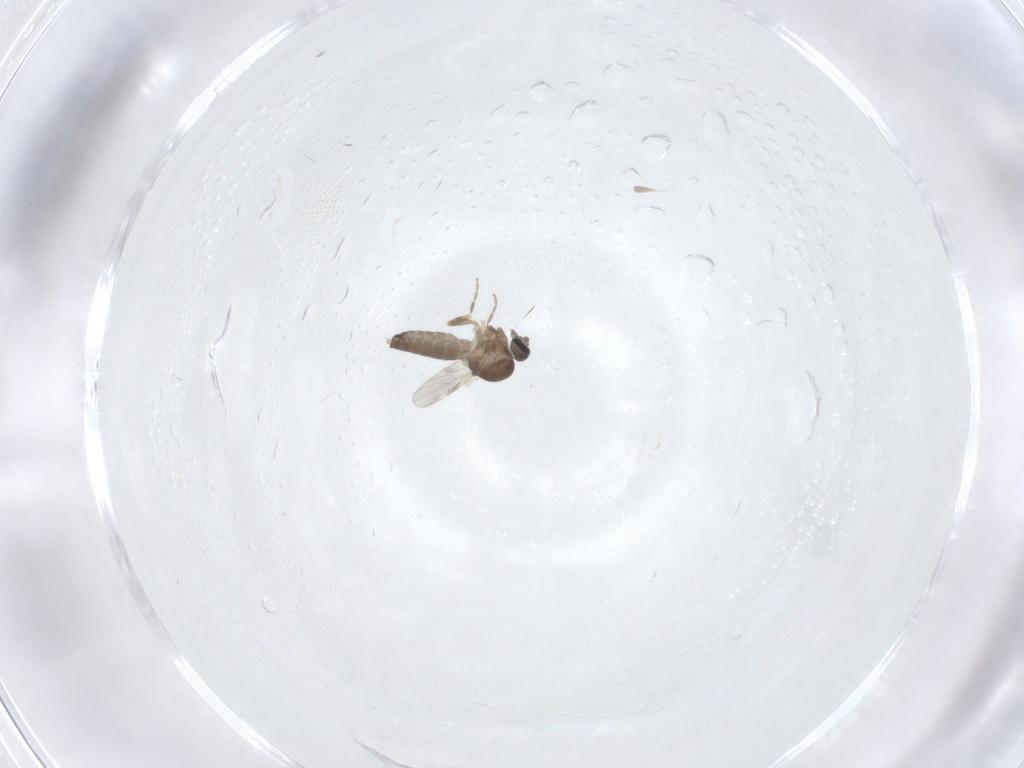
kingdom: Animalia
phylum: Arthropoda
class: Insecta
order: Diptera
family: Ceratopogonidae
